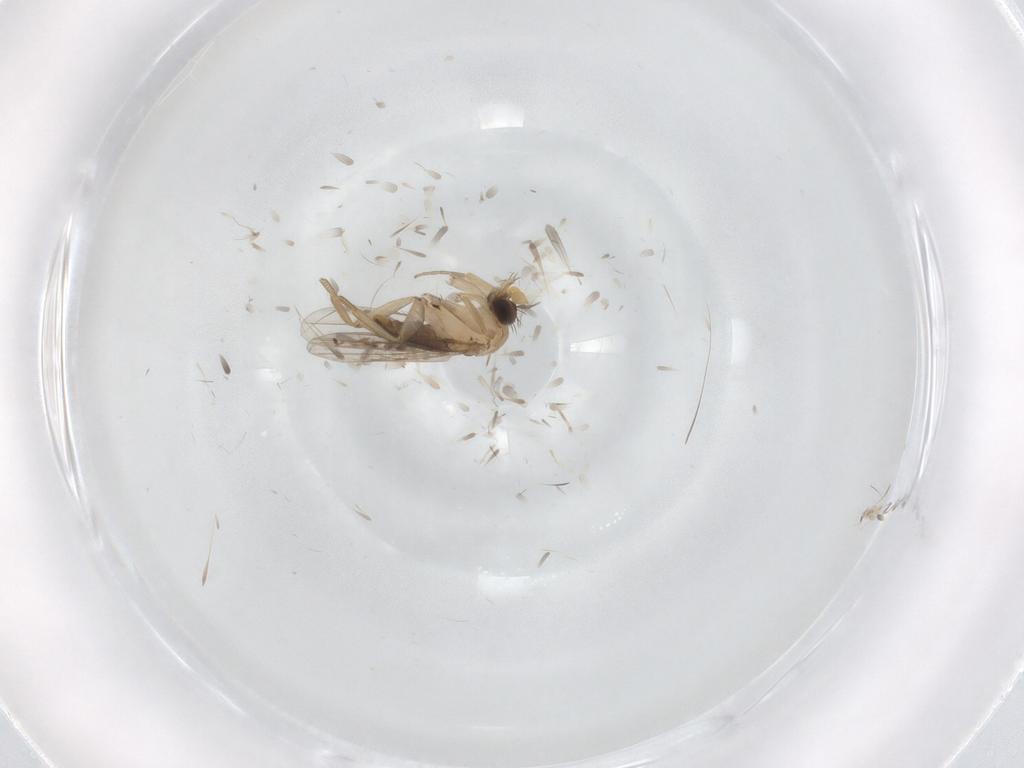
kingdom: Animalia
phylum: Arthropoda
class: Insecta
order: Diptera
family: Phoridae
